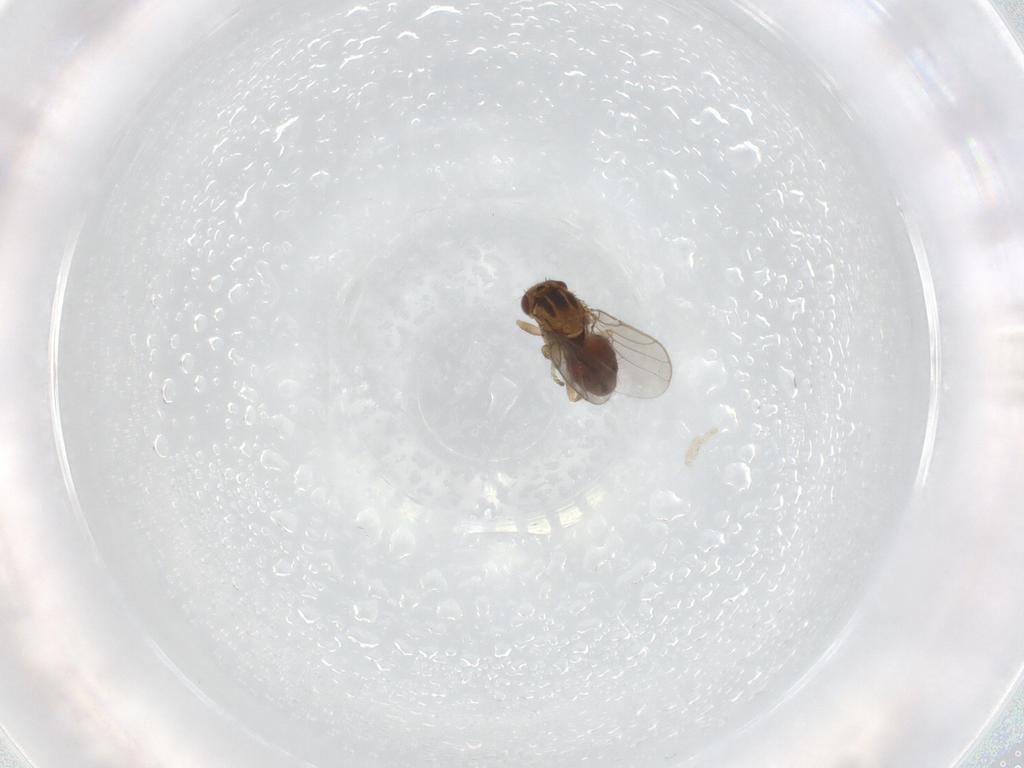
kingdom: Animalia
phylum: Arthropoda
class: Insecta
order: Diptera
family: Chloropidae
